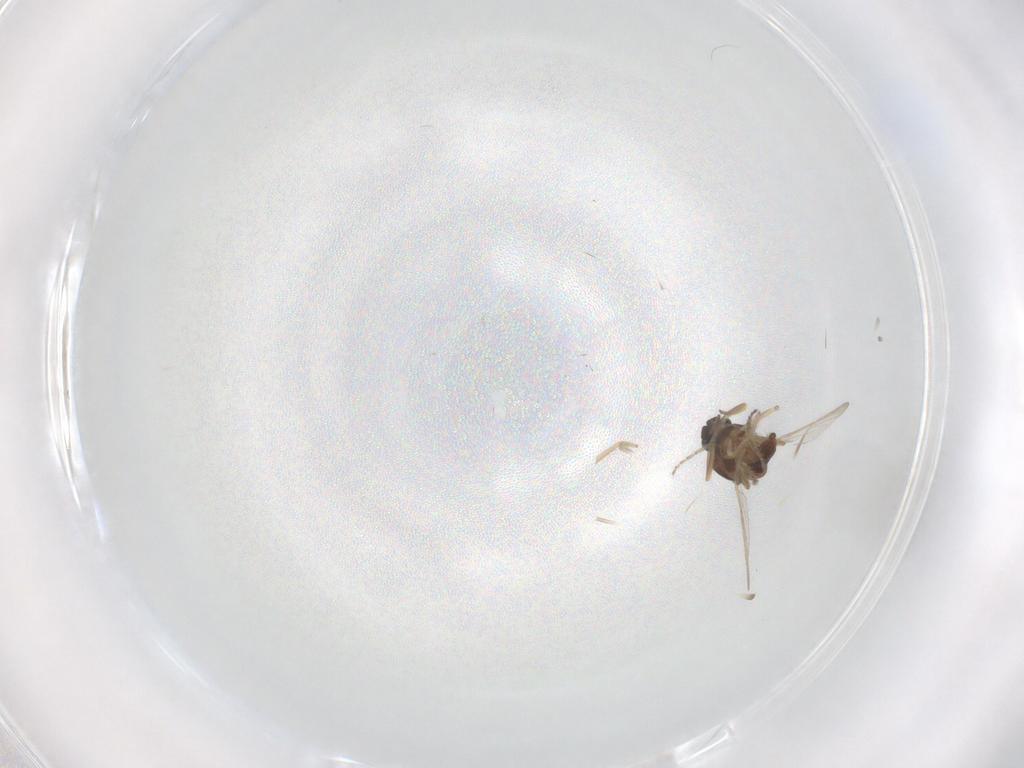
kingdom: Animalia
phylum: Arthropoda
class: Insecta
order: Diptera
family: Ceratopogonidae
